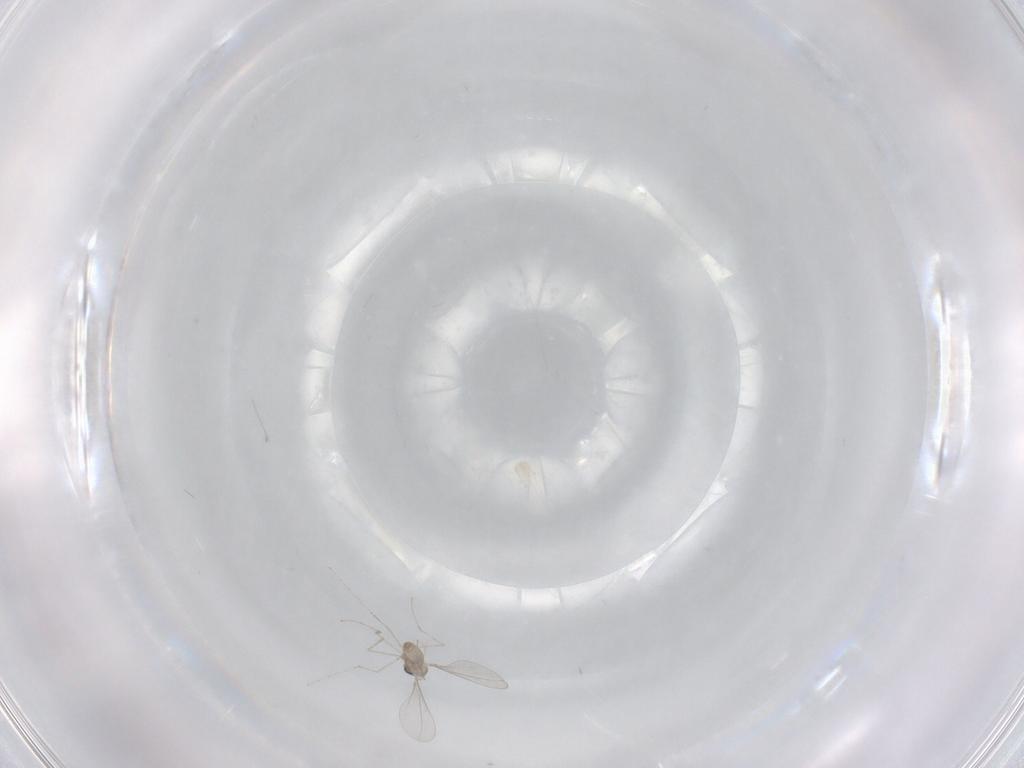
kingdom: Animalia
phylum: Arthropoda
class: Insecta
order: Diptera
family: Cecidomyiidae
